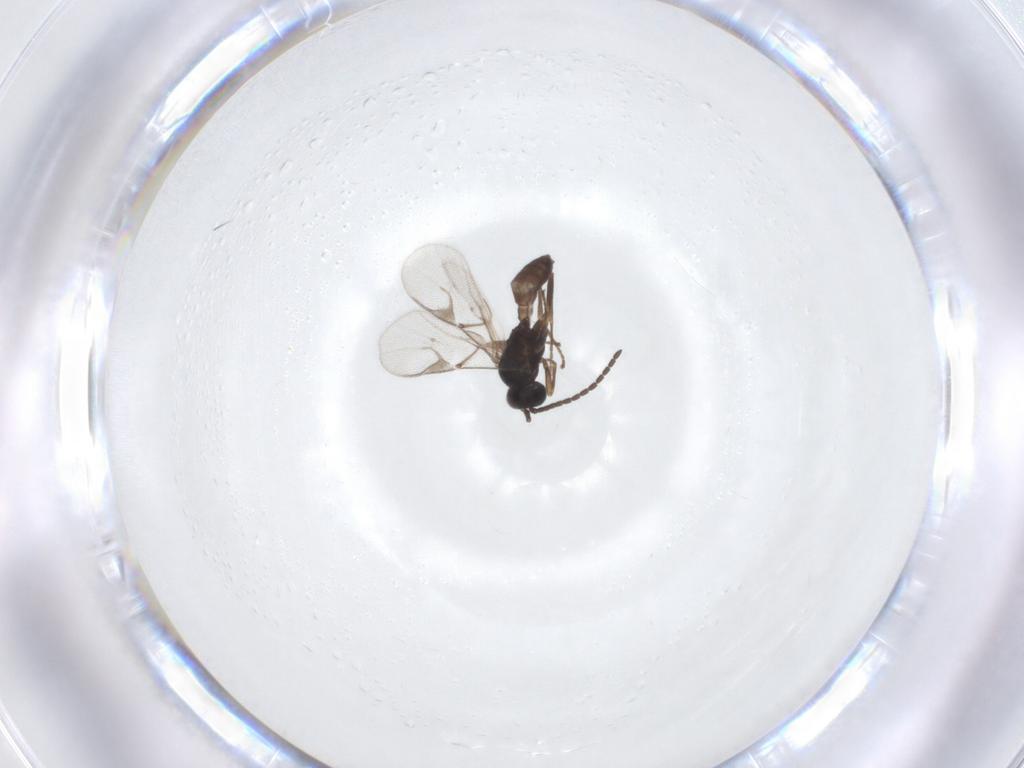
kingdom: Animalia
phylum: Arthropoda
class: Insecta
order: Hymenoptera
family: Braconidae
